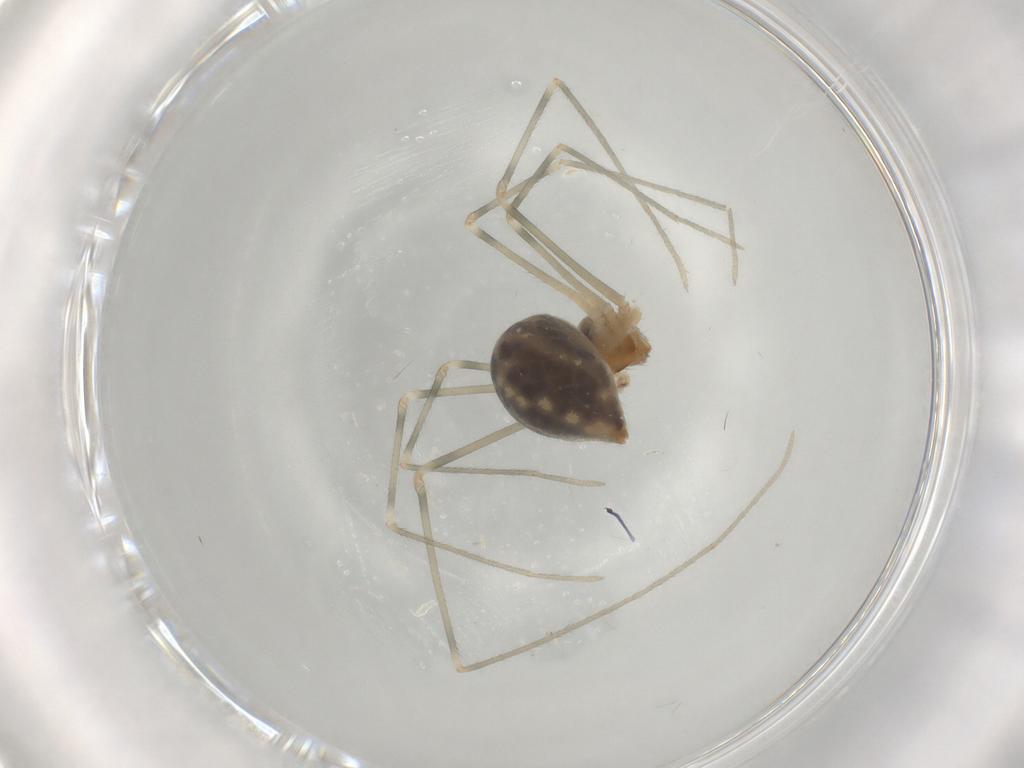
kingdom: Animalia
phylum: Arthropoda
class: Arachnida
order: Araneae
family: Pholcidae
